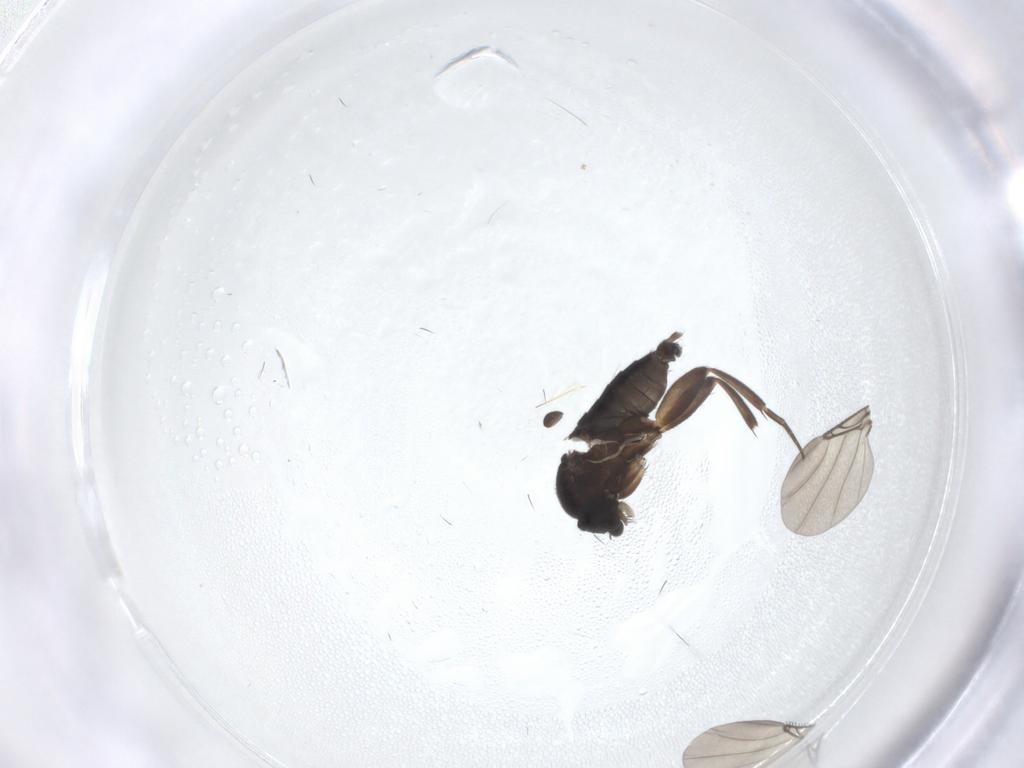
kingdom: Animalia
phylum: Arthropoda
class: Insecta
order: Diptera
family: Phoridae
